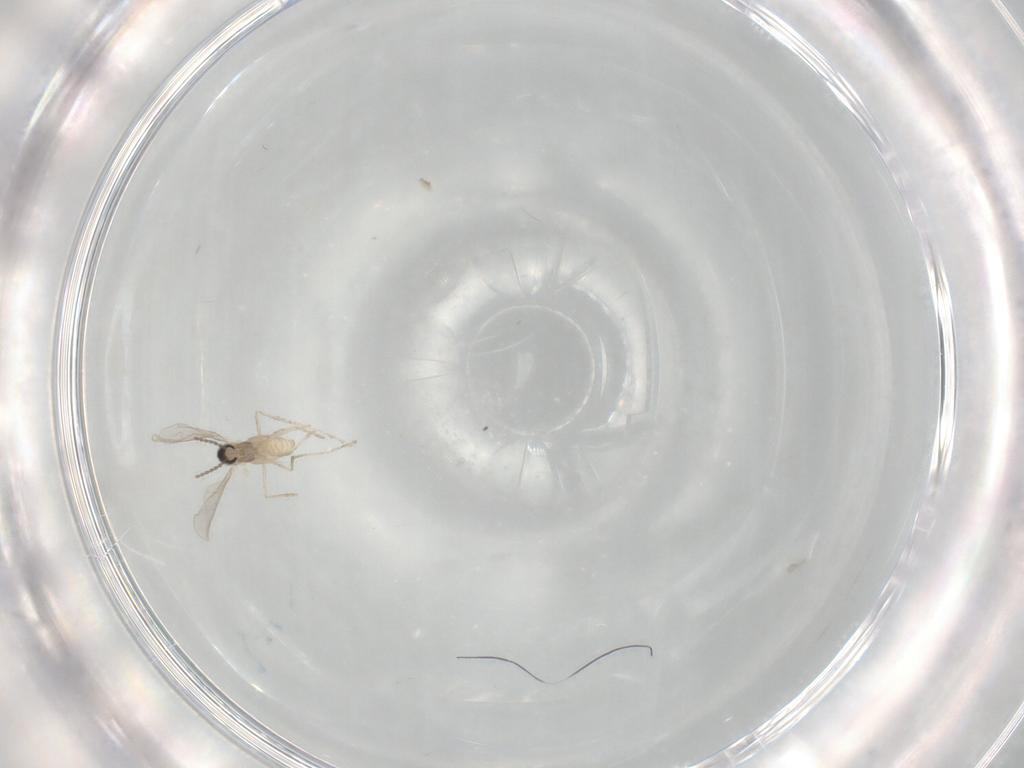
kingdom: Animalia
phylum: Arthropoda
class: Insecta
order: Diptera
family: Cecidomyiidae
